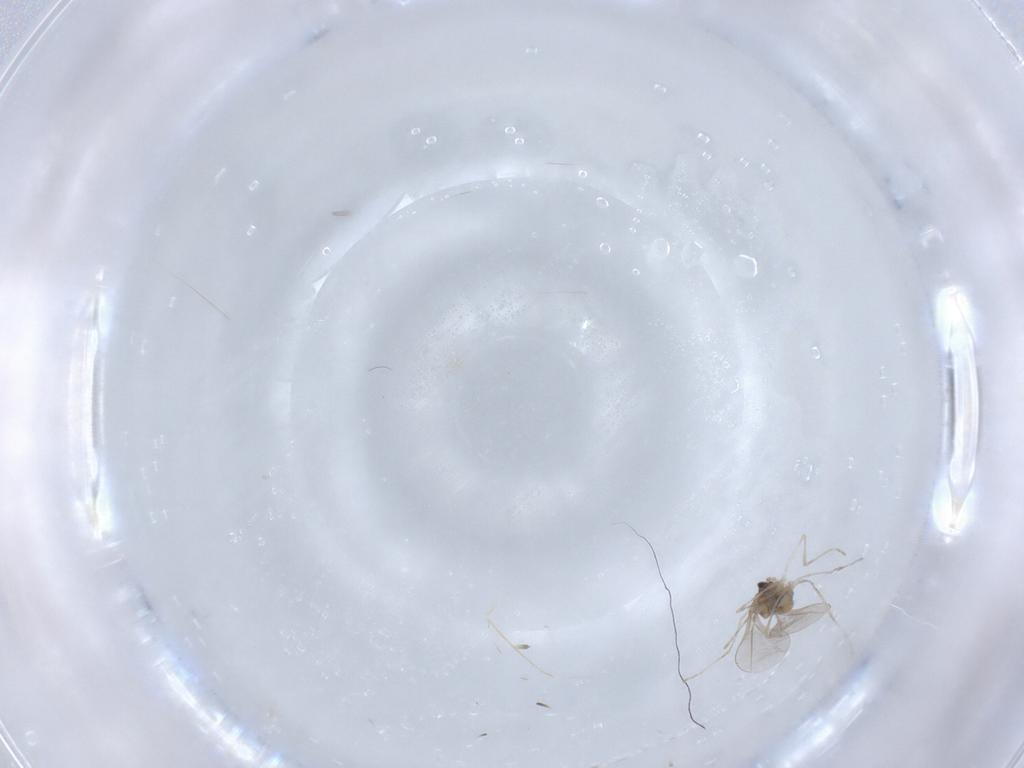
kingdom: Animalia
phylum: Arthropoda
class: Insecta
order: Diptera
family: Cecidomyiidae
